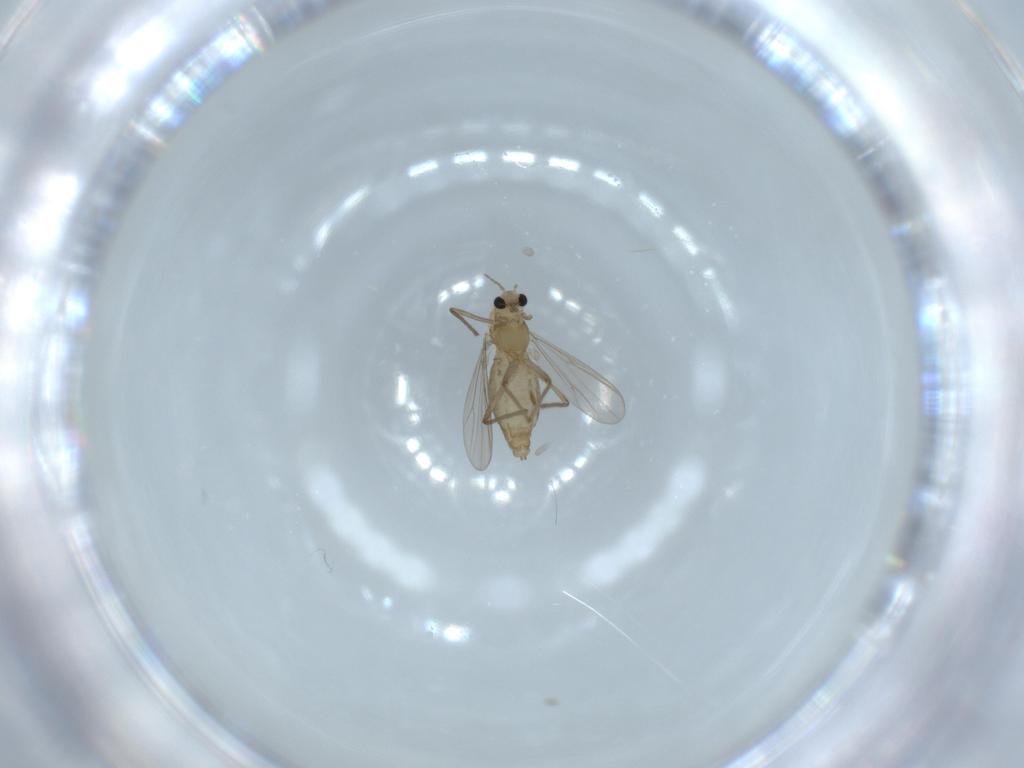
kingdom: Animalia
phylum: Arthropoda
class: Insecta
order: Diptera
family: Chironomidae
